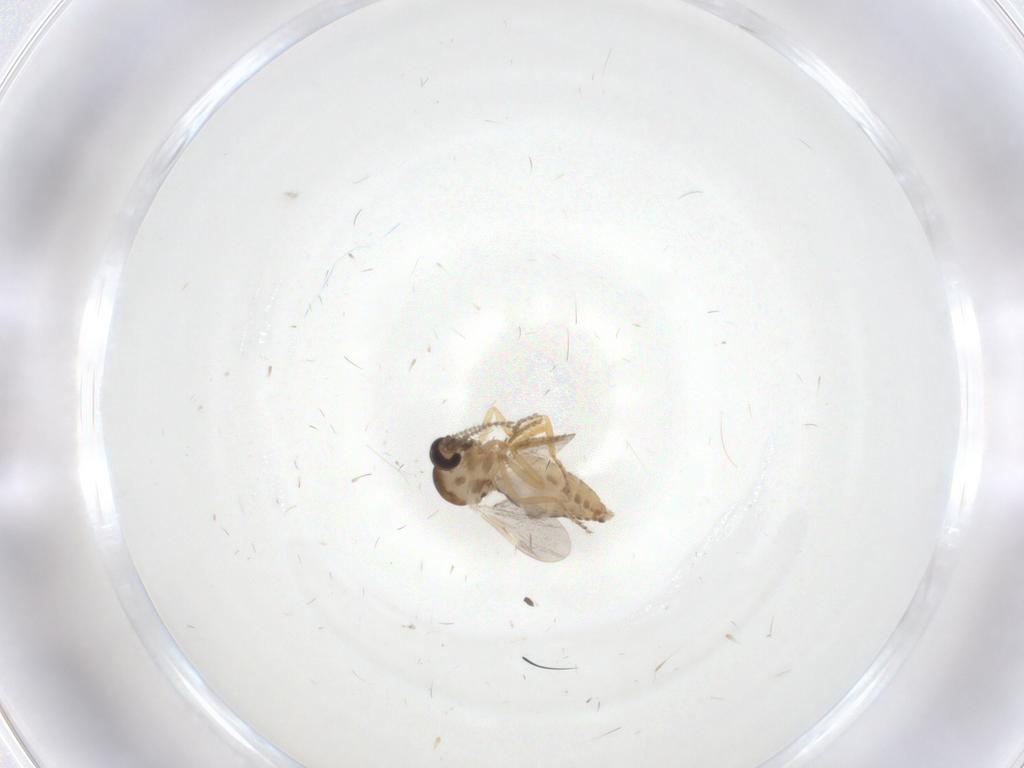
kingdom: Animalia
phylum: Arthropoda
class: Insecta
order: Diptera
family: Ceratopogonidae
